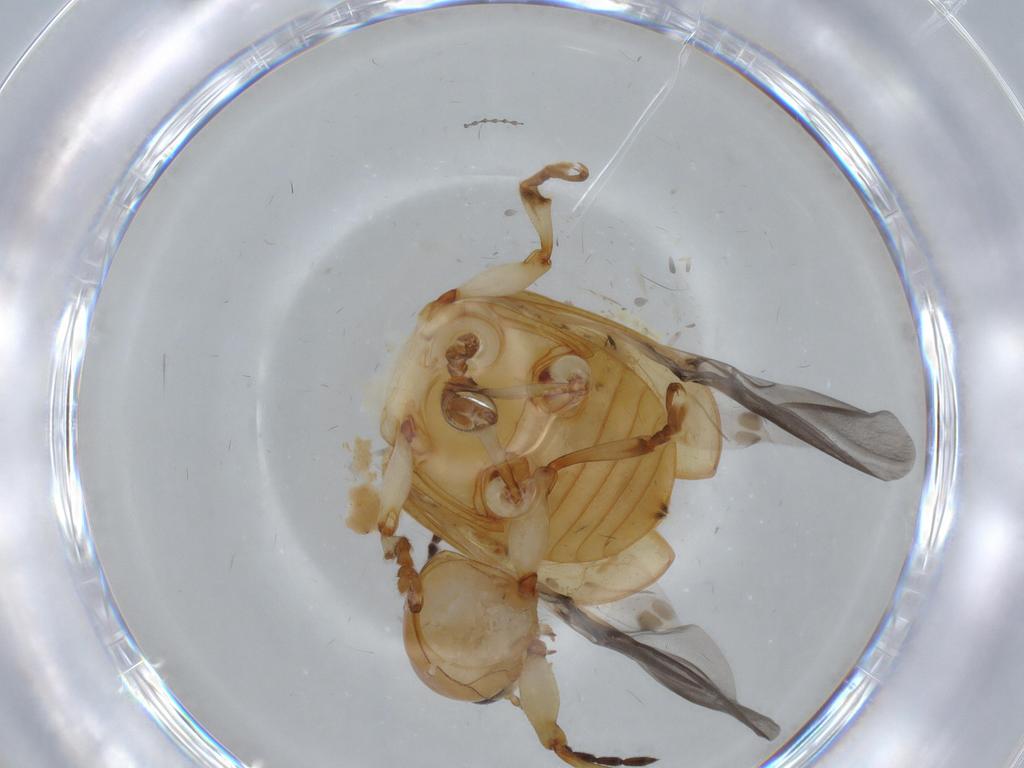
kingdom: Animalia
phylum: Arthropoda
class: Insecta
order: Coleoptera
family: Chrysomelidae
